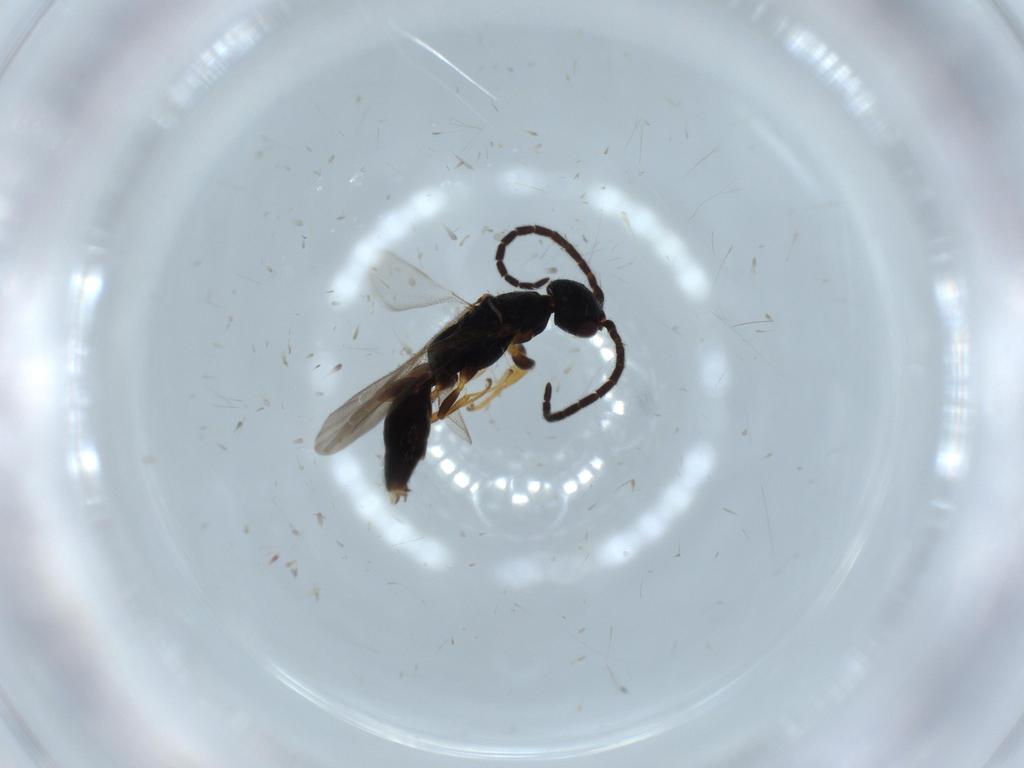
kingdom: Animalia
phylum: Arthropoda
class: Insecta
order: Hymenoptera
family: Bethylidae
